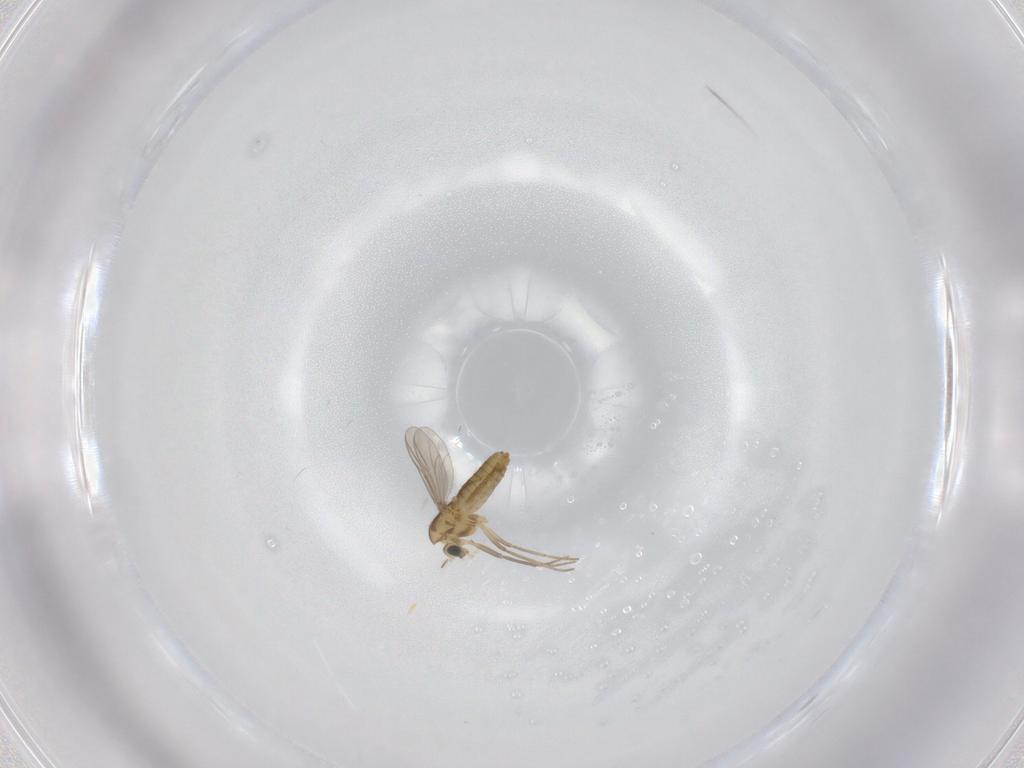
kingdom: Animalia
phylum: Arthropoda
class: Insecta
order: Diptera
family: Chironomidae
